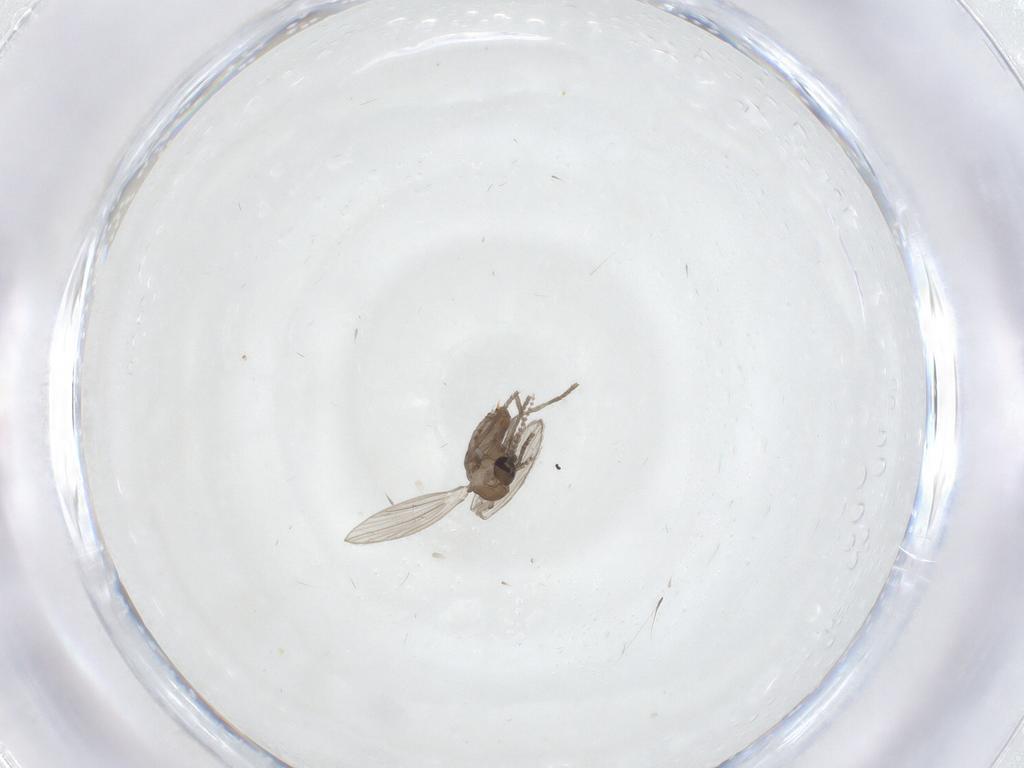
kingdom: Animalia
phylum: Arthropoda
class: Insecta
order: Diptera
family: Psychodidae
